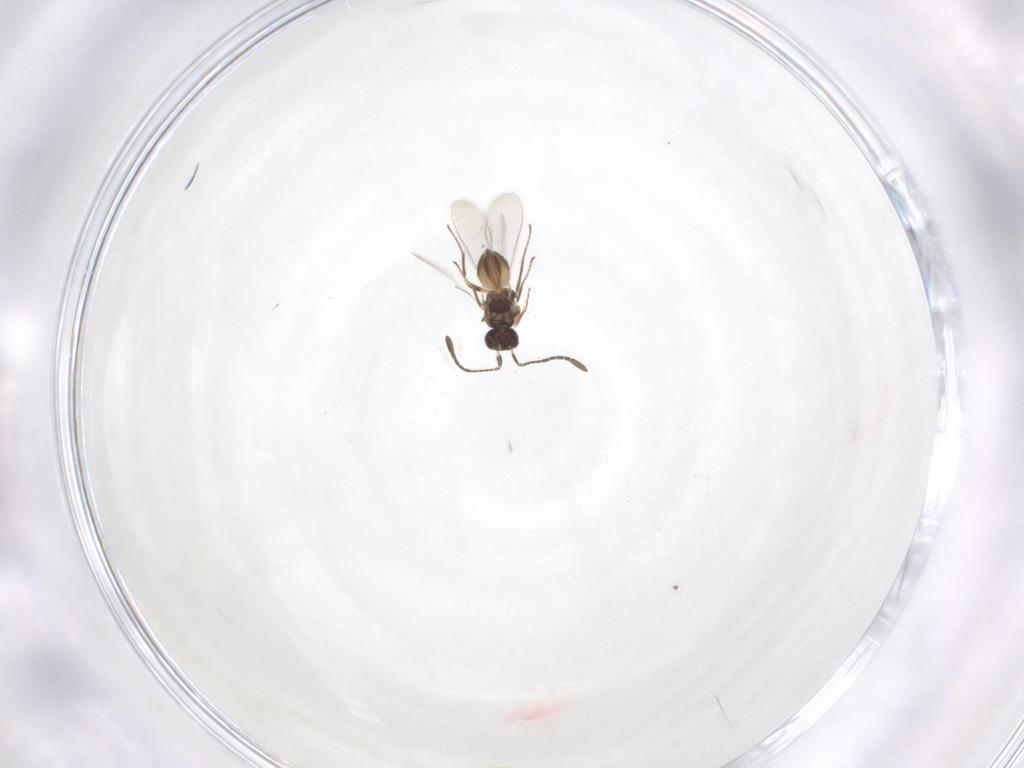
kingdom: Animalia
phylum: Arthropoda
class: Insecta
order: Hymenoptera
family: Mymaridae
